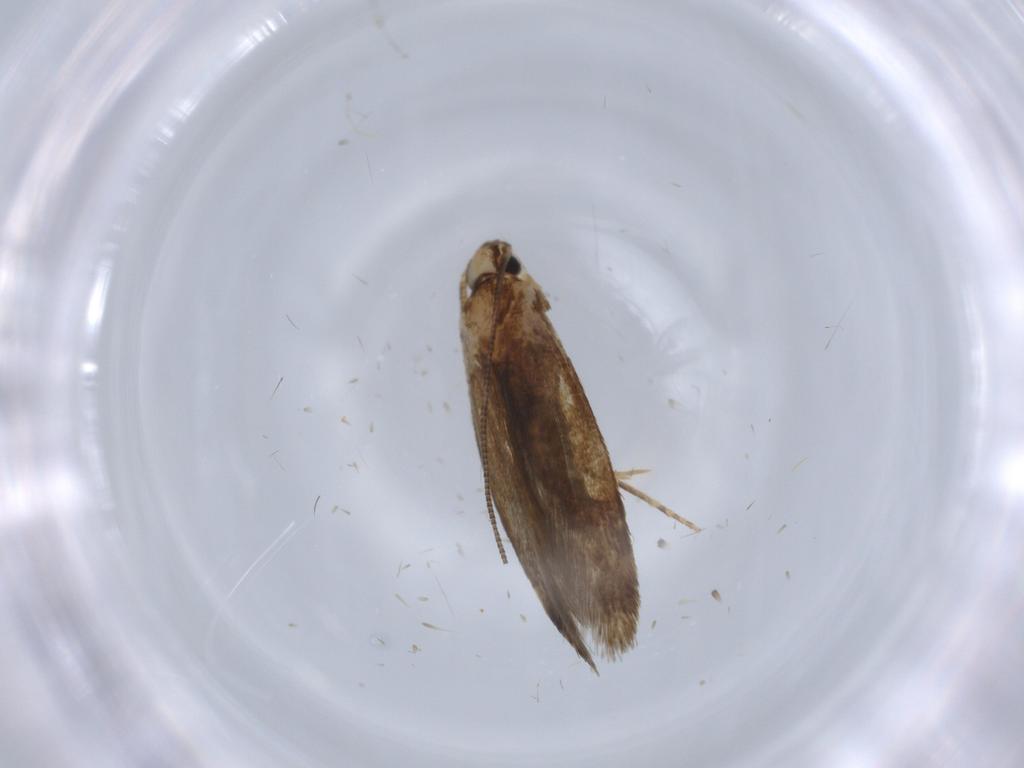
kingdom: Animalia
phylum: Arthropoda
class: Insecta
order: Lepidoptera
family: Tineidae
